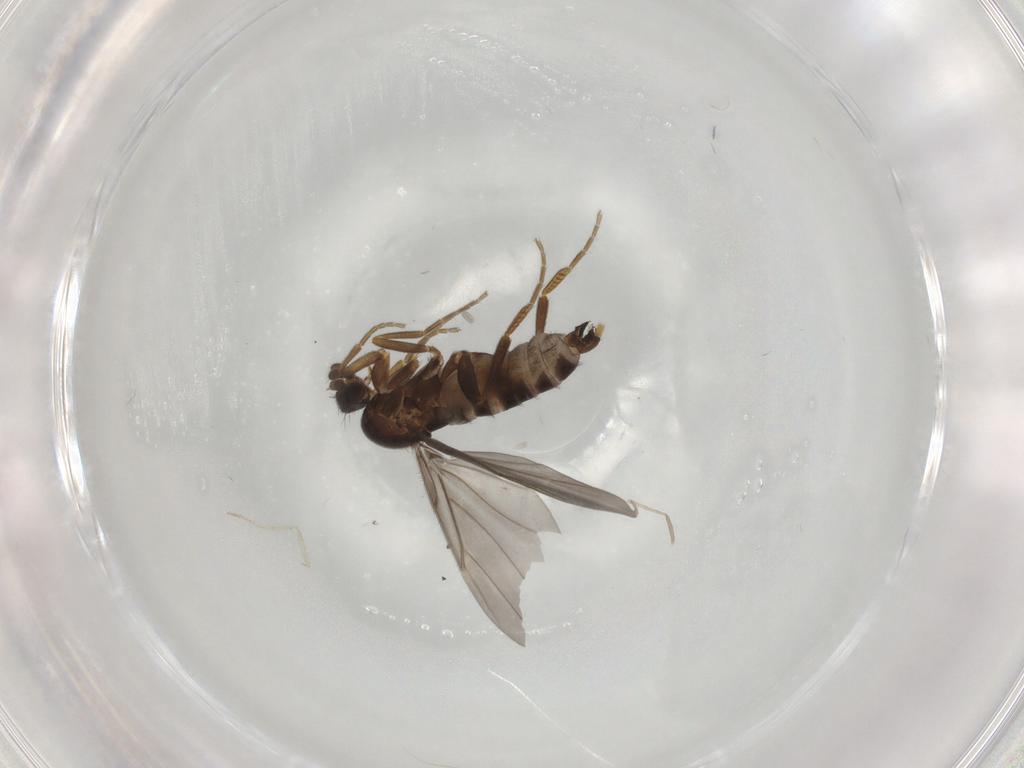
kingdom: Animalia
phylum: Arthropoda
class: Insecta
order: Diptera
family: Cecidomyiidae
